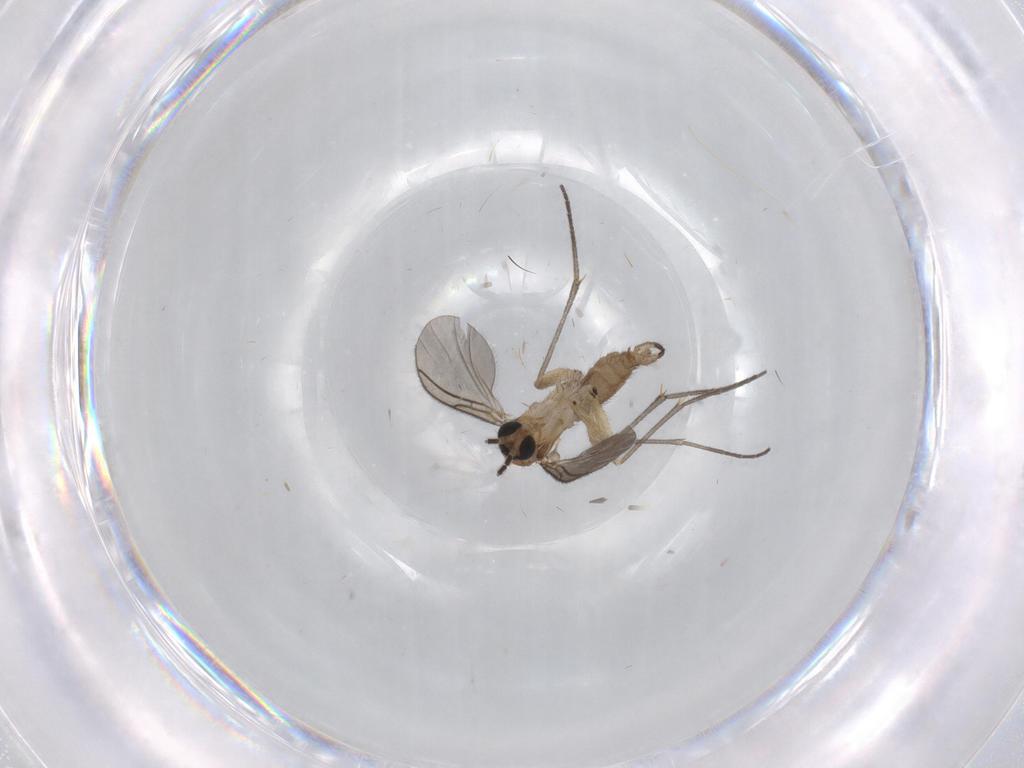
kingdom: Animalia
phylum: Arthropoda
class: Insecta
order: Diptera
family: Sciaridae
